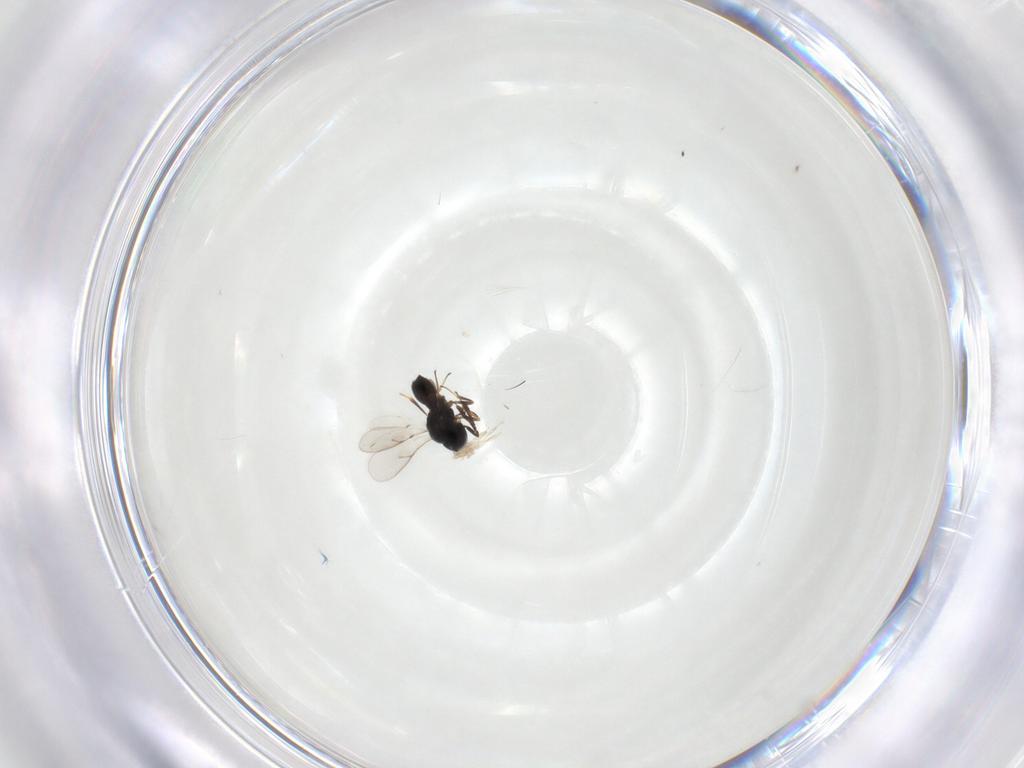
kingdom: Animalia
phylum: Arthropoda
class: Insecta
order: Hymenoptera
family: Scelionidae
